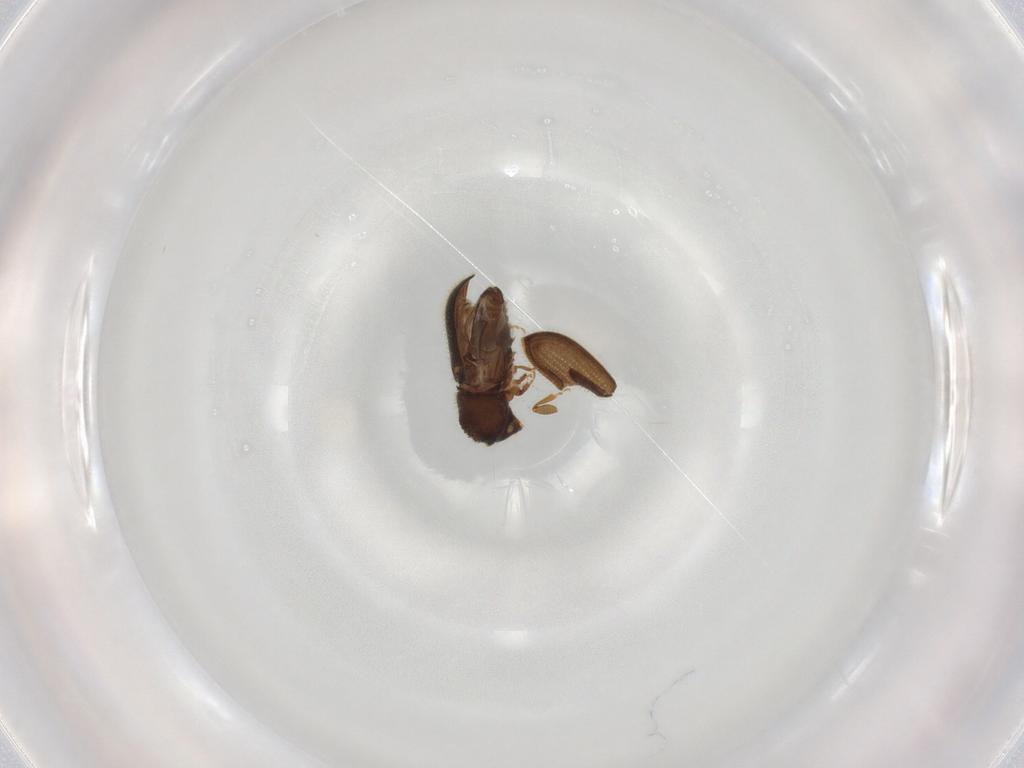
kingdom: Animalia
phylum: Arthropoda
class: Insecta
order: Coleoptera
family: Curculionidae
